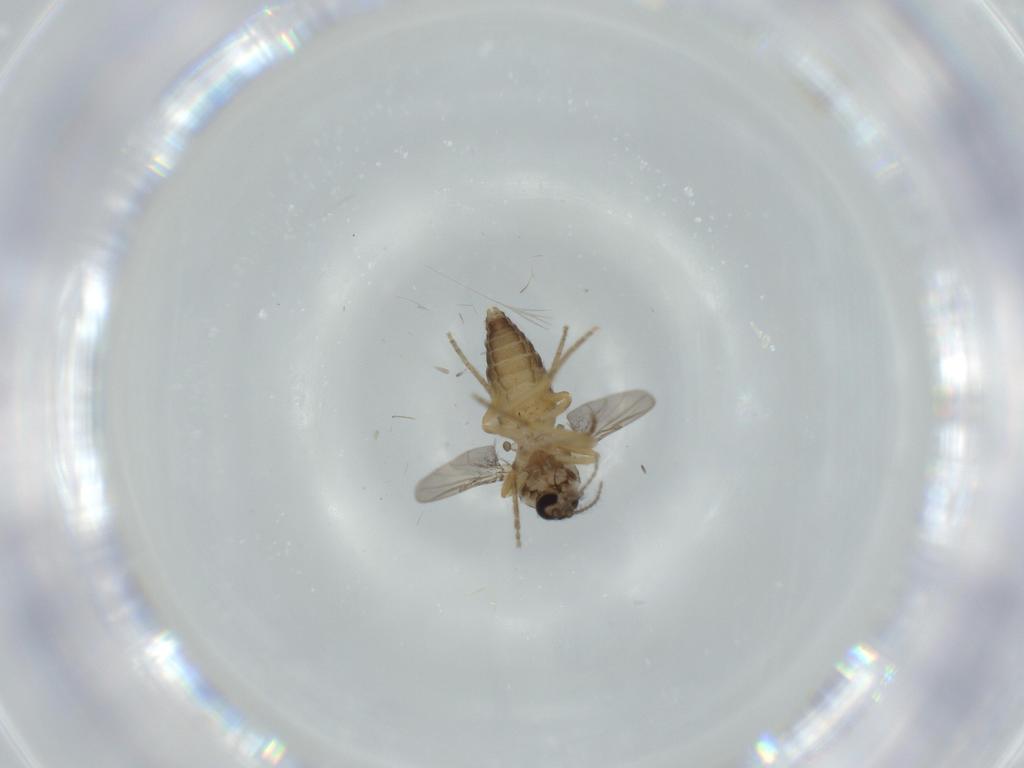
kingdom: Animalia
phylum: Arthropoda
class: Insecta
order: Diptera
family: Ceratopogonidae
